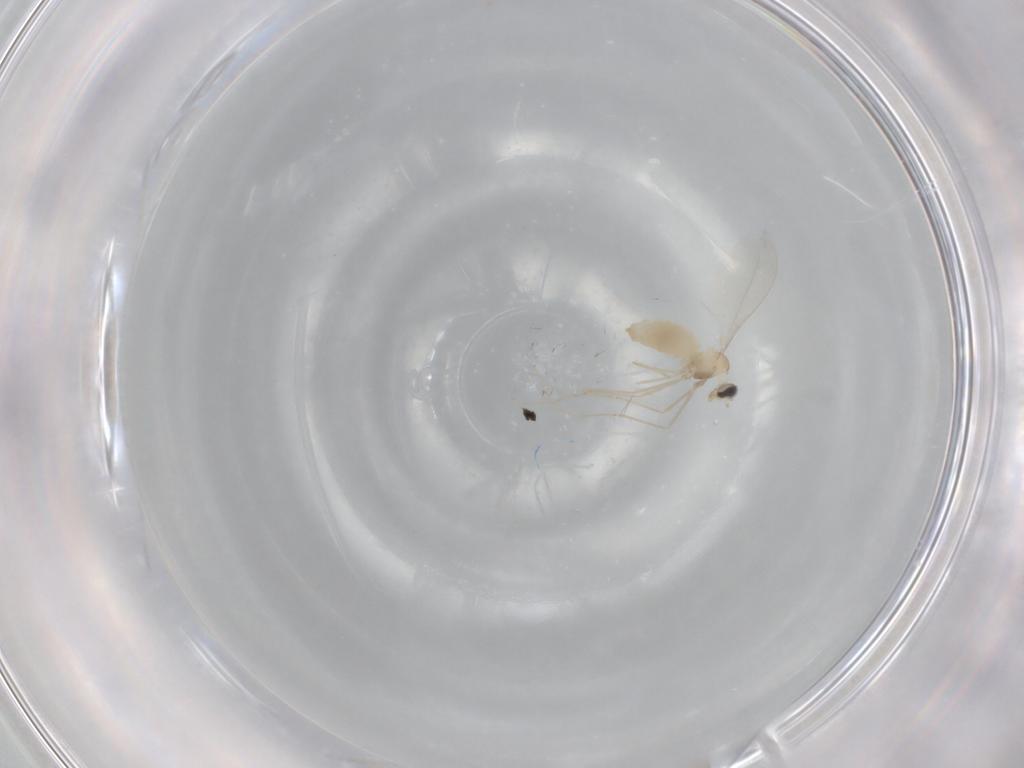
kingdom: Animalia
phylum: Arthropoda
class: Insecta
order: Diptera
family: Cecidomyiidae
